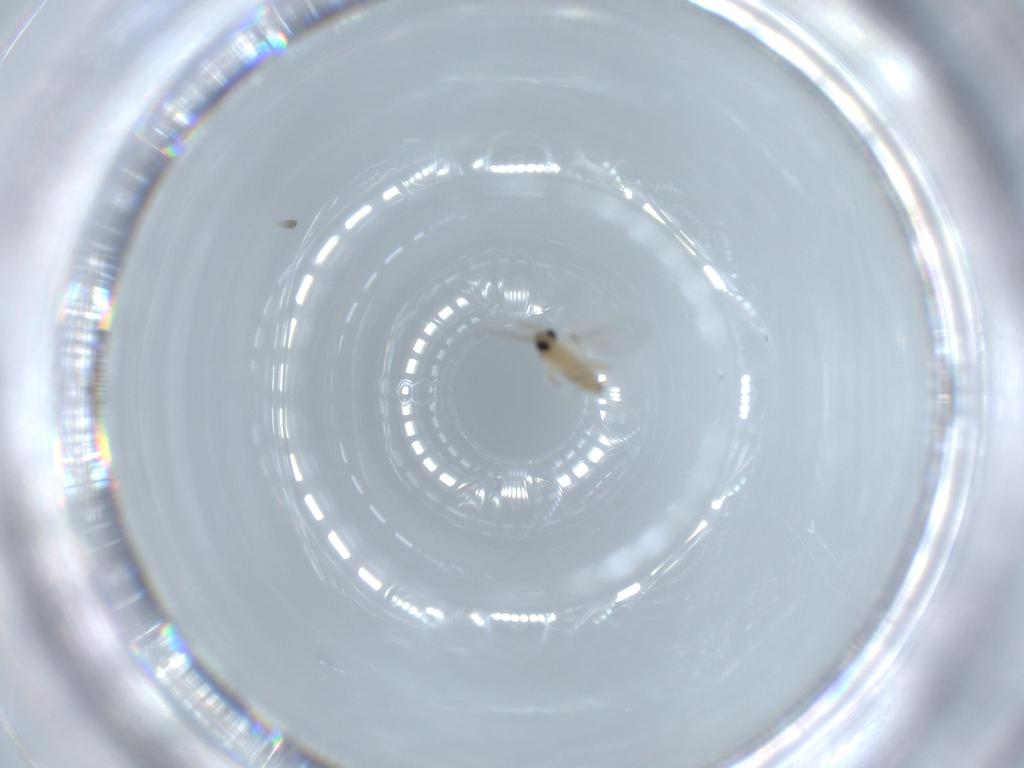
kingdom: Animalia
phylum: Arthropoda
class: Insecta
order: Diptera
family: Cecidomyiidae
